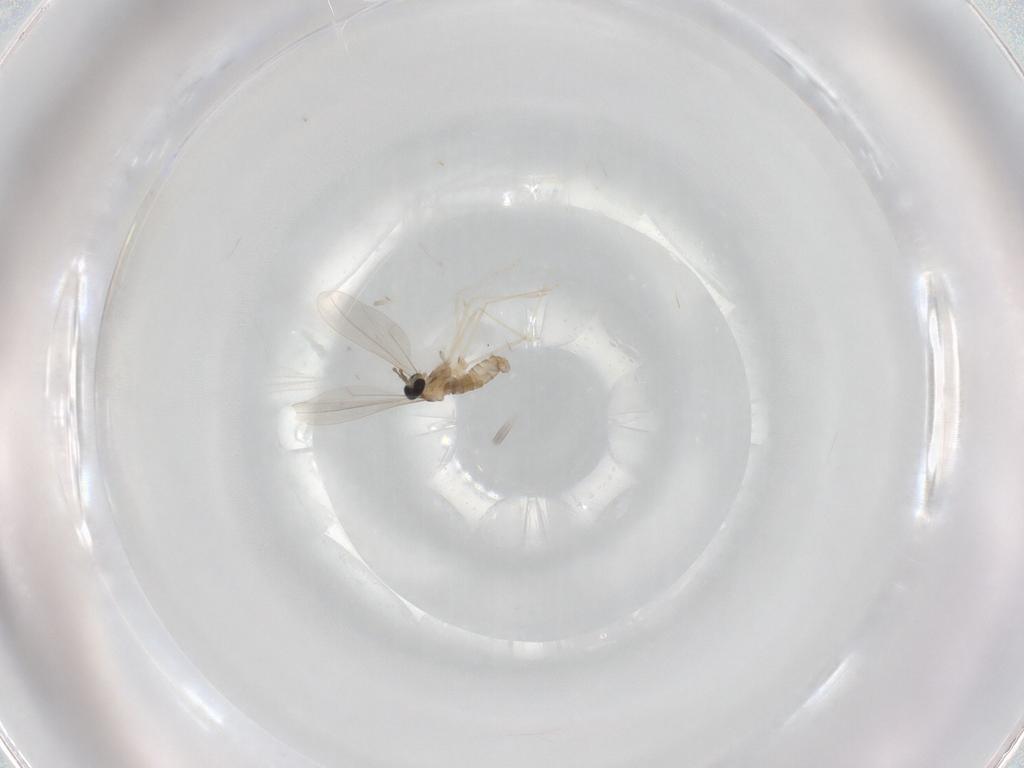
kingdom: Animalia
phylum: Arthropoda
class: Insecta
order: Diptera
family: Cecidomyiidae
